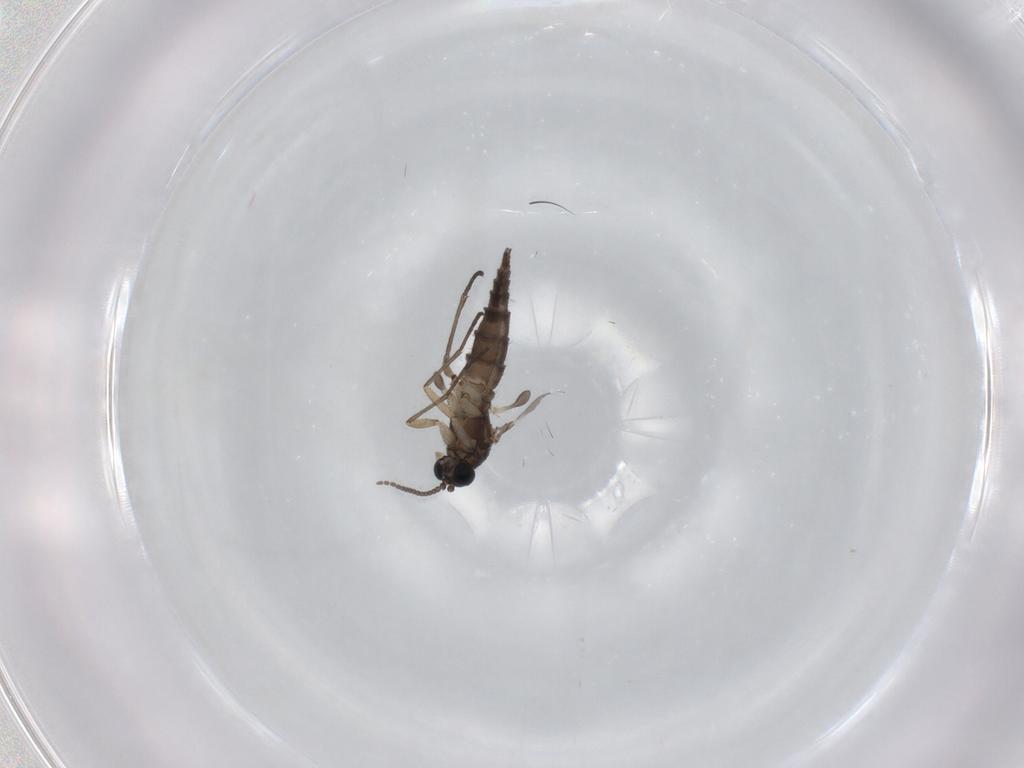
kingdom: Animalia
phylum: Arthropoda
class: Insecta
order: Diptera
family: Sciaridae
